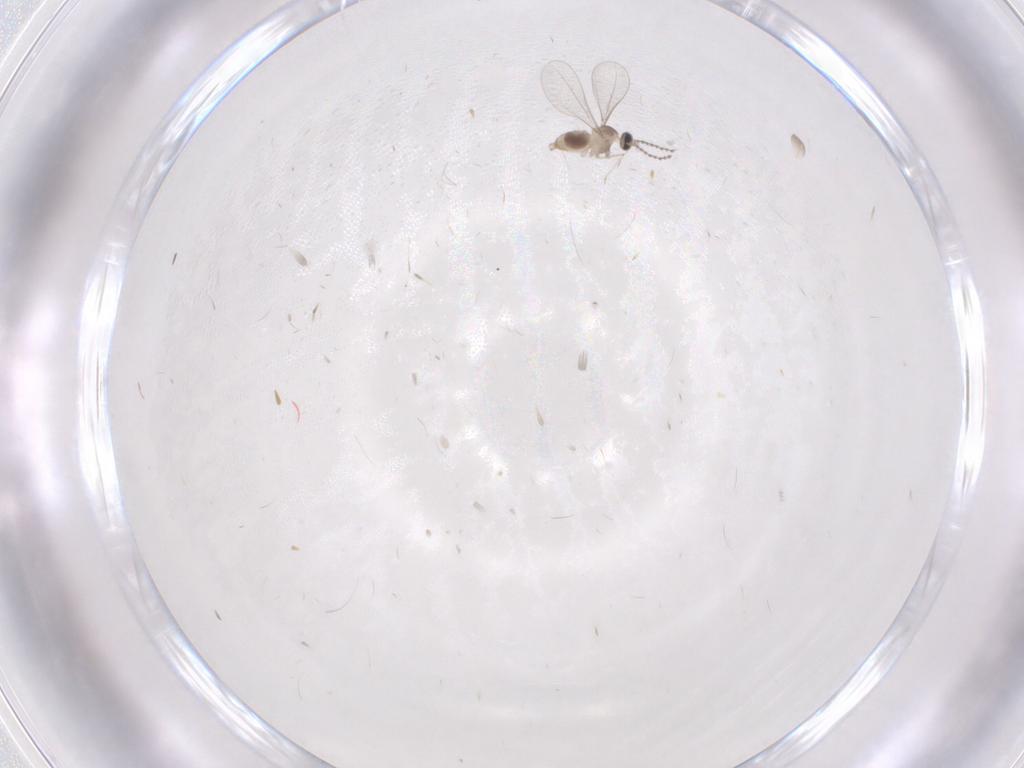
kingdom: Animalia
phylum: Arthropoda
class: Insecta
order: Diptera
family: Cecidomyiidae
